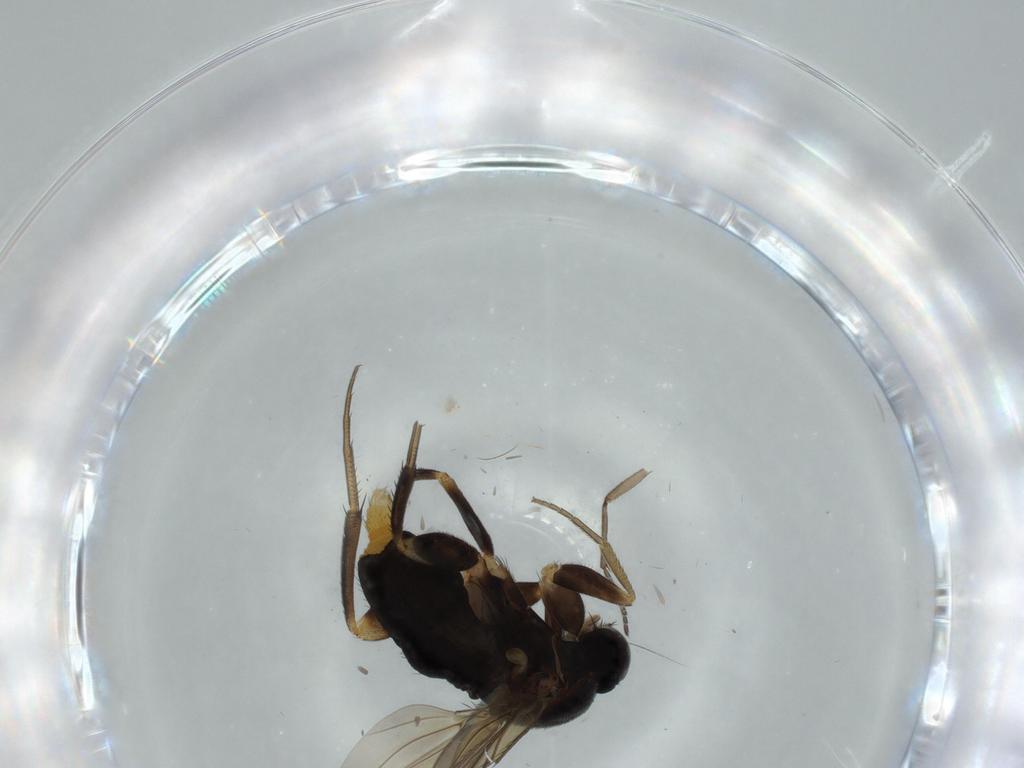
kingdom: Animalia
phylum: Arthropoda
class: Insecta
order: Diptera
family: Phoridae
